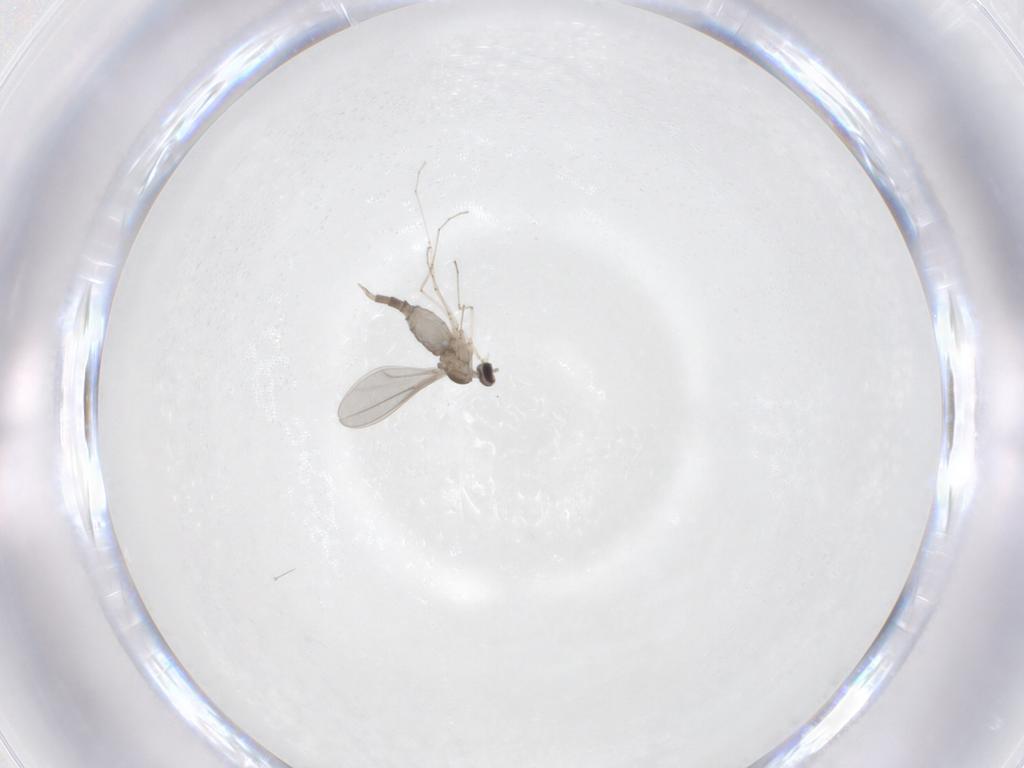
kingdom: Animalia
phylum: Arthropoda
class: Insecta
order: Diptera
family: Cecidomyiidae
